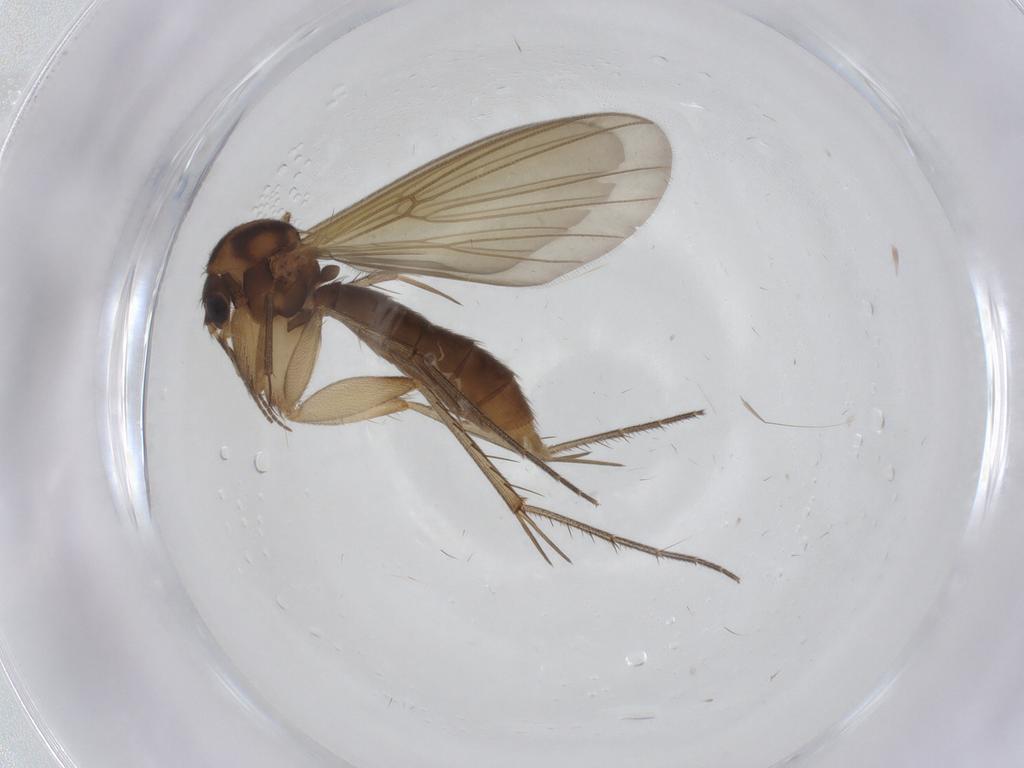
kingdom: Animalia
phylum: Arthropoda
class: Insecta
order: Diptera
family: Mycetophilidae
